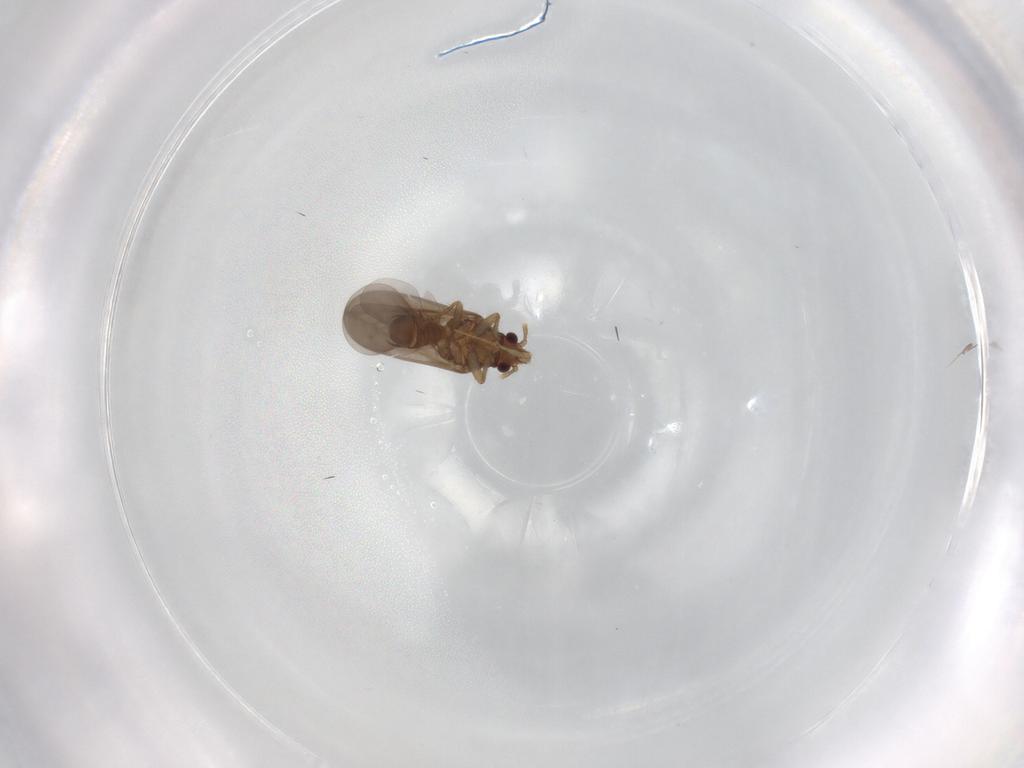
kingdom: Animalia
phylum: Arthropoda
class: Insecta
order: Hemiptera
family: Ceratocombidae
